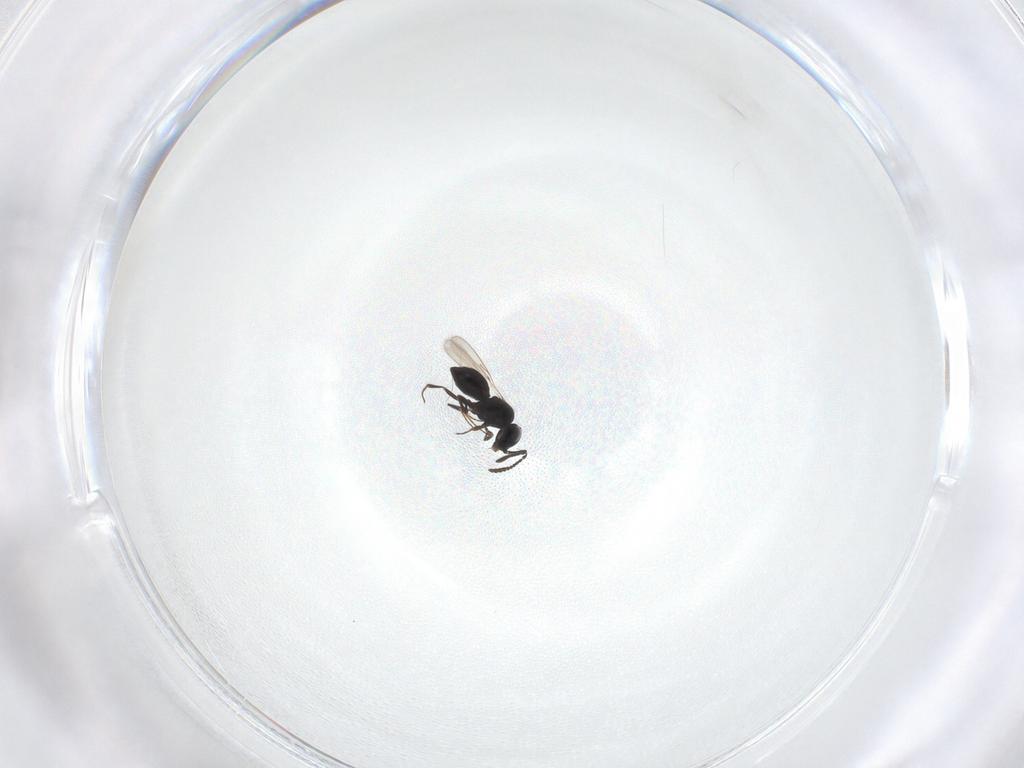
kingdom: Animalia
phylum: Arthropoda
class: Insecta
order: Hymenoptera
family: Scelionidae
